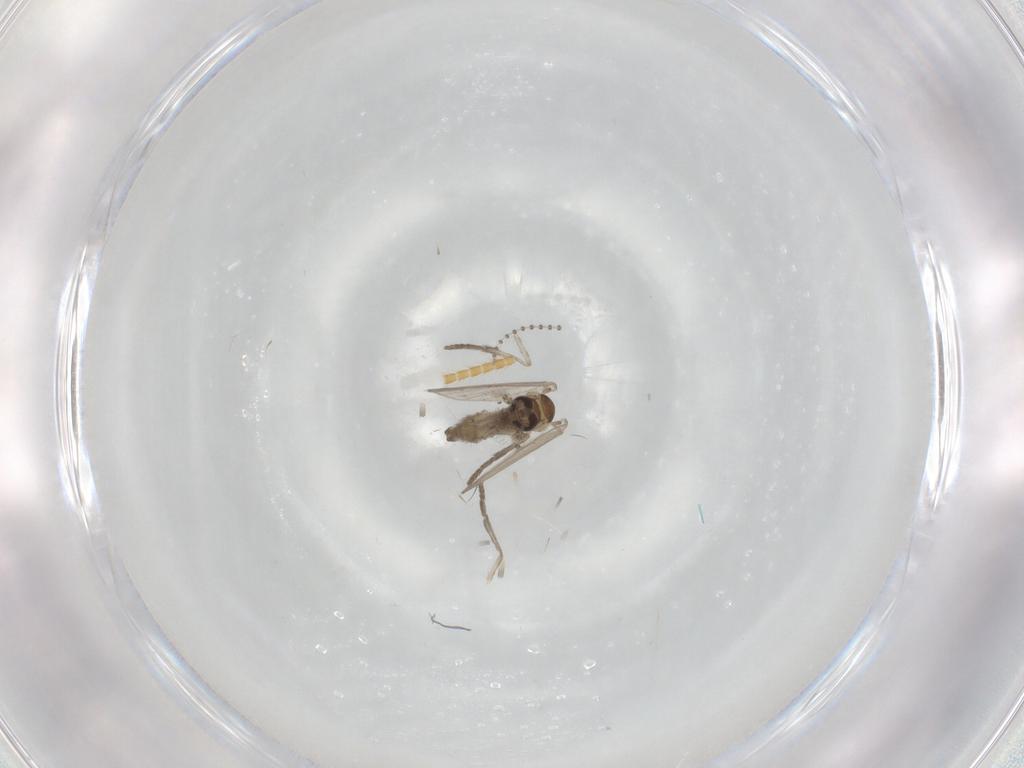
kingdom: Animalia
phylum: Arthropoda
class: Insecta
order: Diptera
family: Psychodidae
